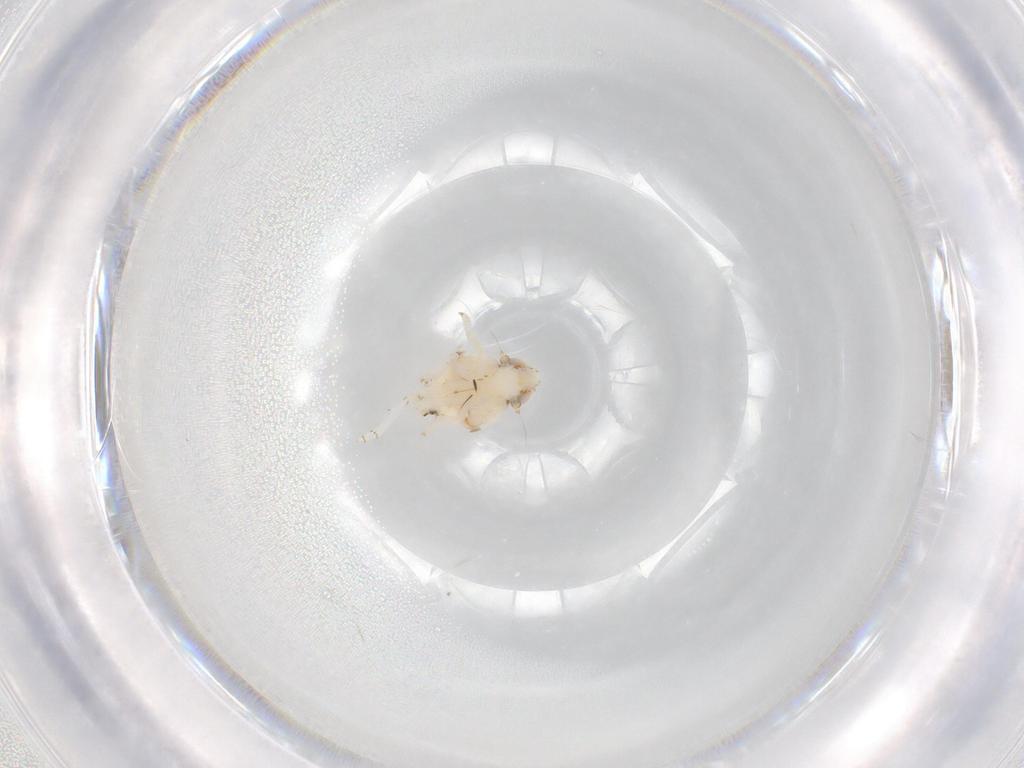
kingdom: Animalia
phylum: Arthropoda
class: Insecta
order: Hemiptera
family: Nogodinidae
